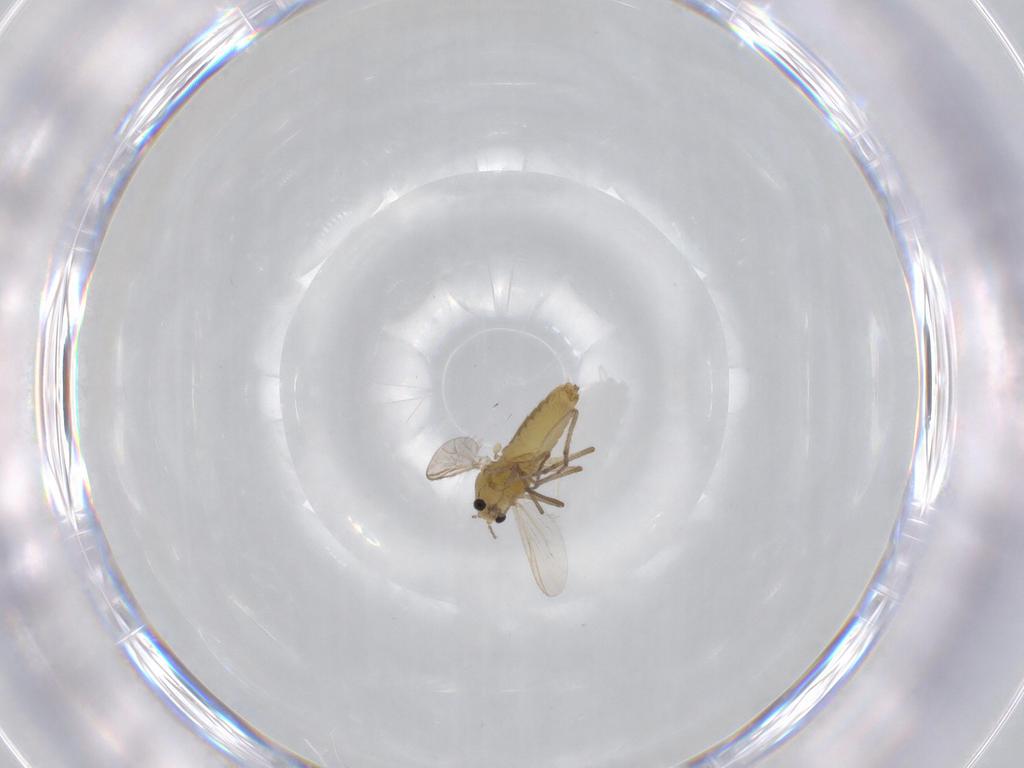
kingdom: Animalia
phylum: Arthropoda
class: Insecta
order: Diptera
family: Chironomidae
